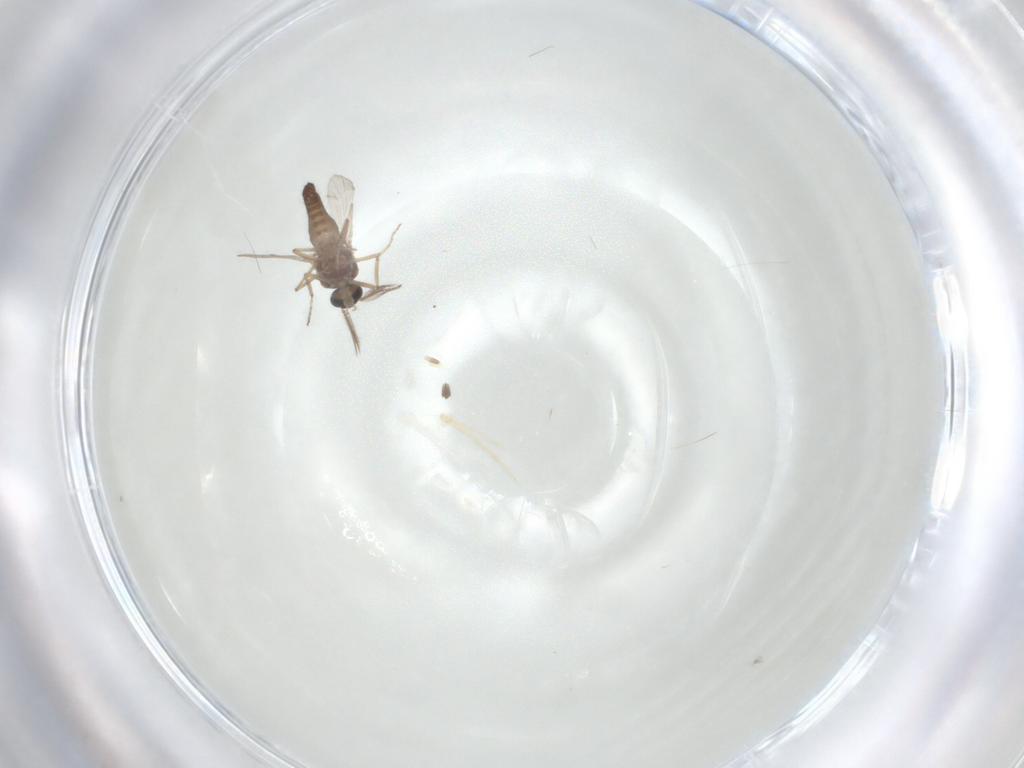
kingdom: Animalia
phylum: Arthropoda
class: Insecta
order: Diptera
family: Ceratopogonidae
